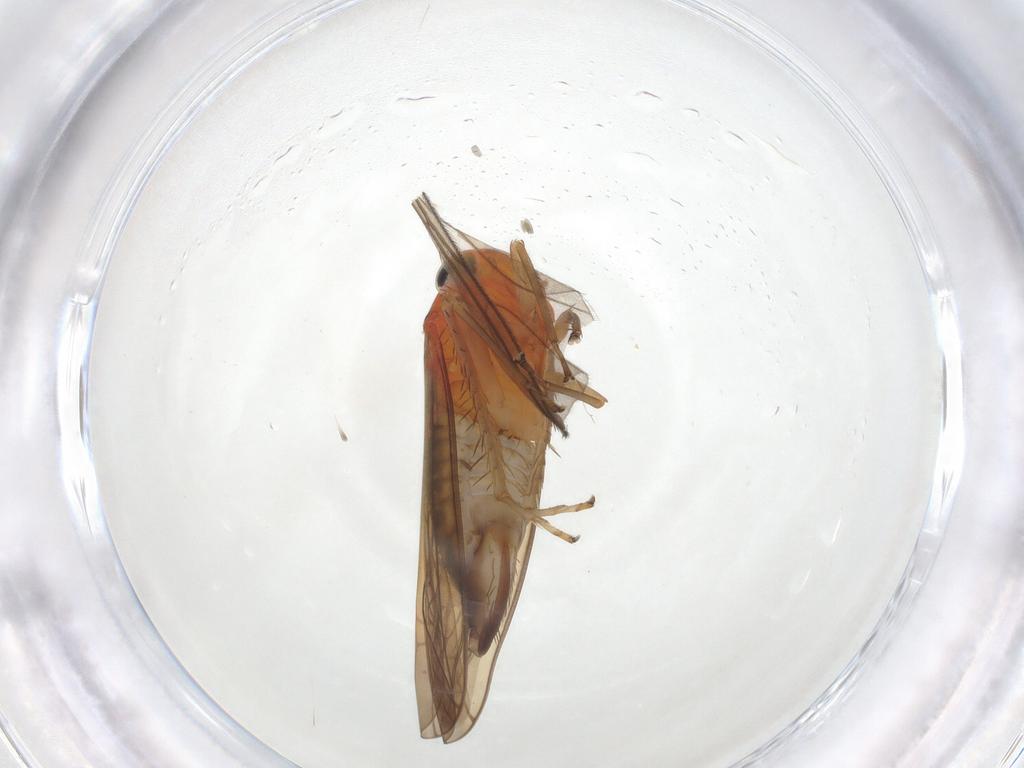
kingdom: Animalia
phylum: Arthropoda
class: Insecta
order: Hemiptera
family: Cicadellidae
